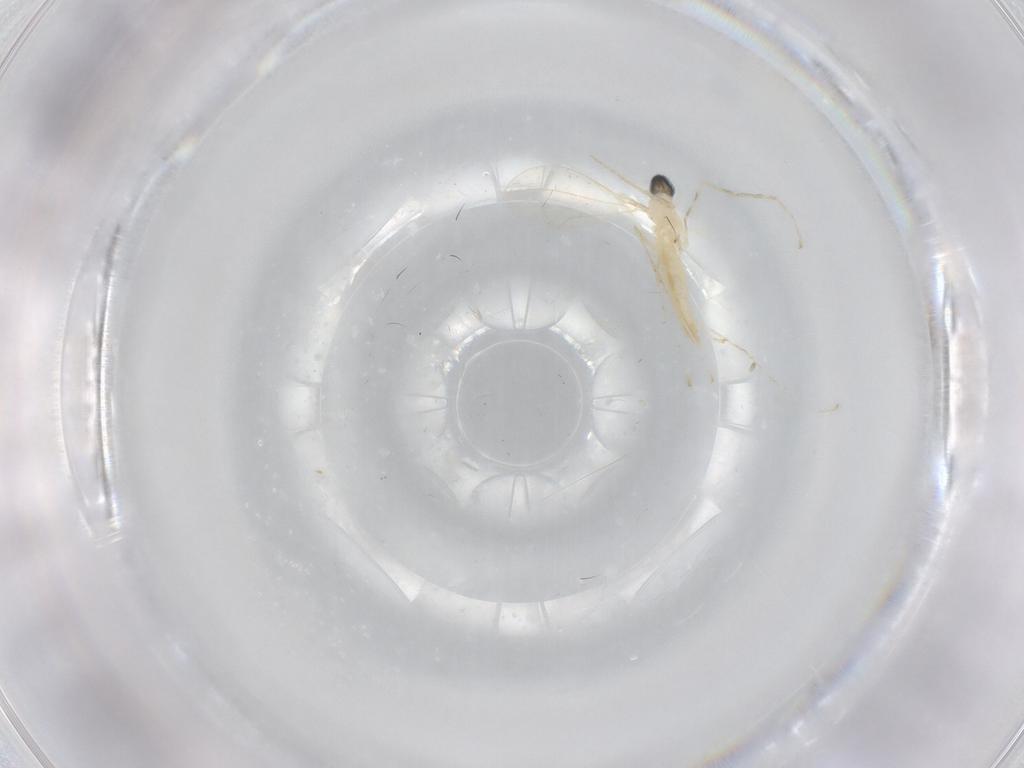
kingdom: Animalia
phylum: Arthropoda
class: Insecta
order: Diptera
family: Cecidomyiidae
